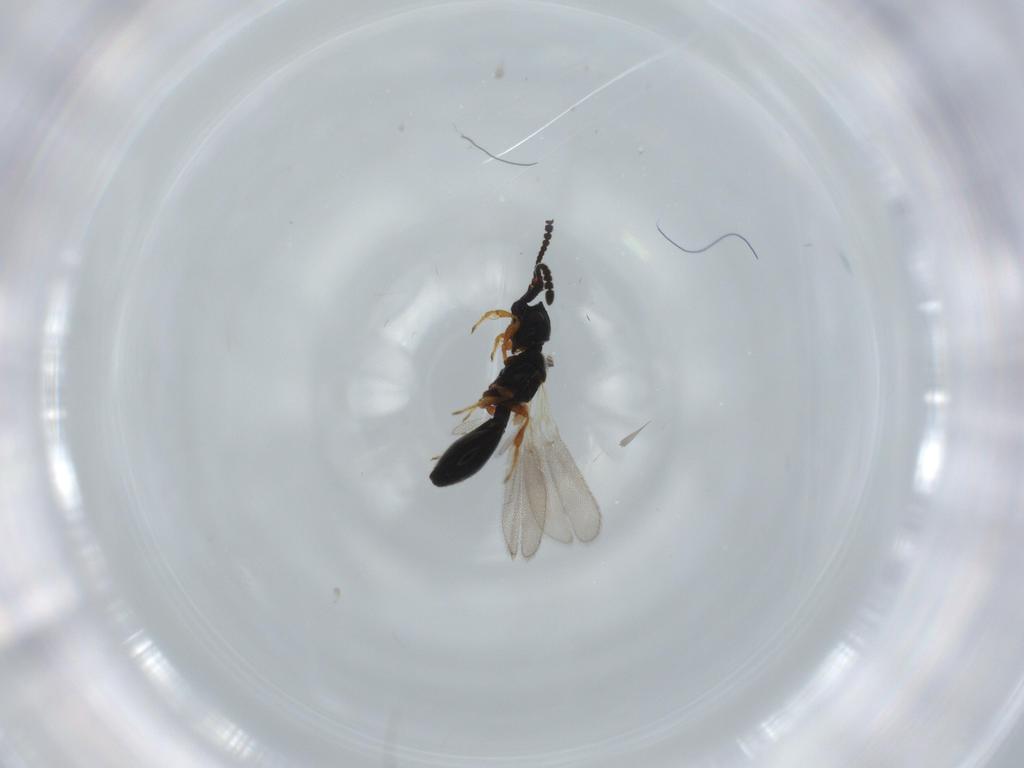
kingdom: Animalia
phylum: Arthropoda
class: Insecta
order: Hymenoptera
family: Diapriidae
